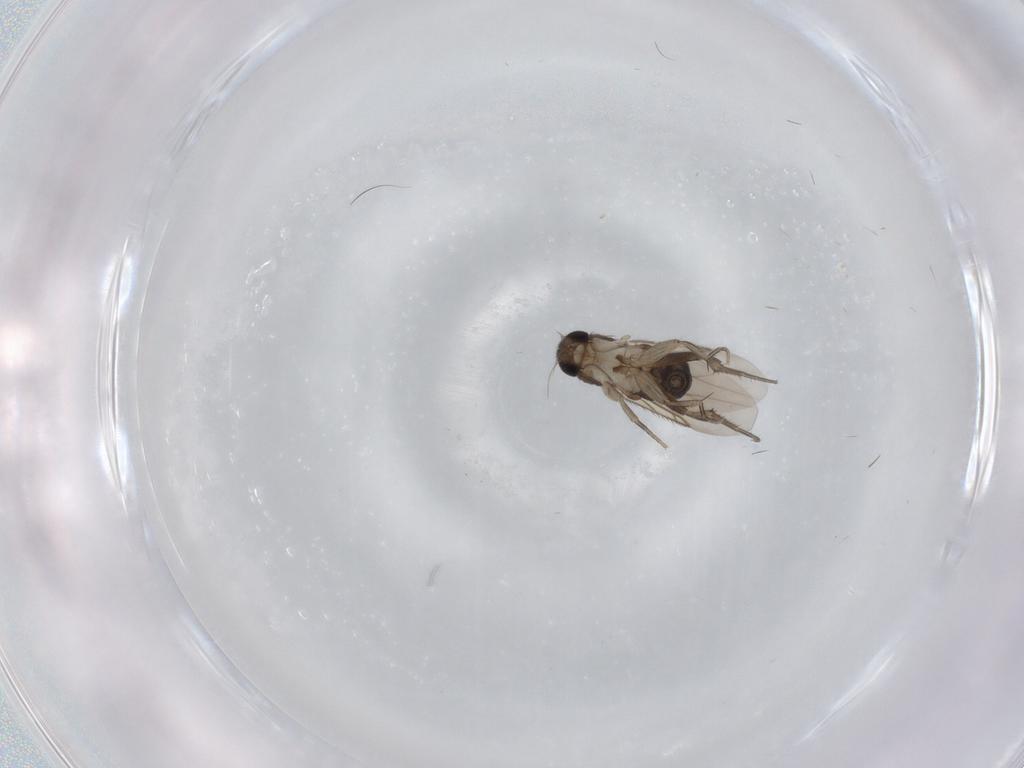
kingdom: Animalia
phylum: Arthropoda
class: Insecta
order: Diptera
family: Phoridae
